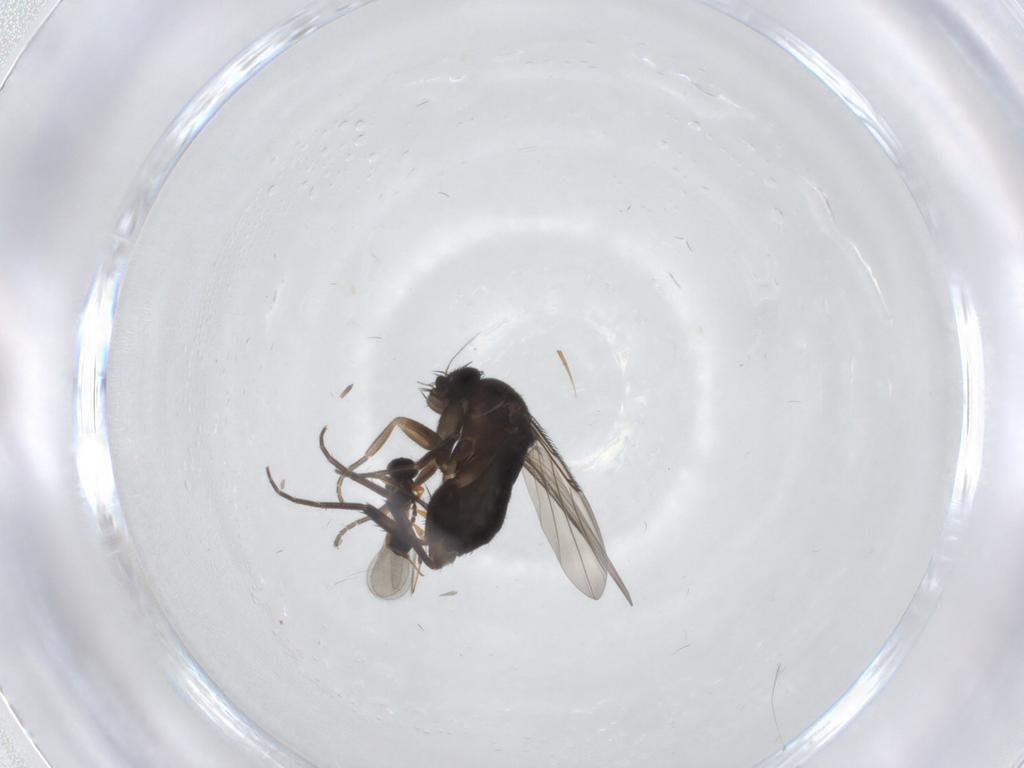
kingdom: Animalia
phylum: Arthropoda
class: Insecta
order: Diptera
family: Phoridae
